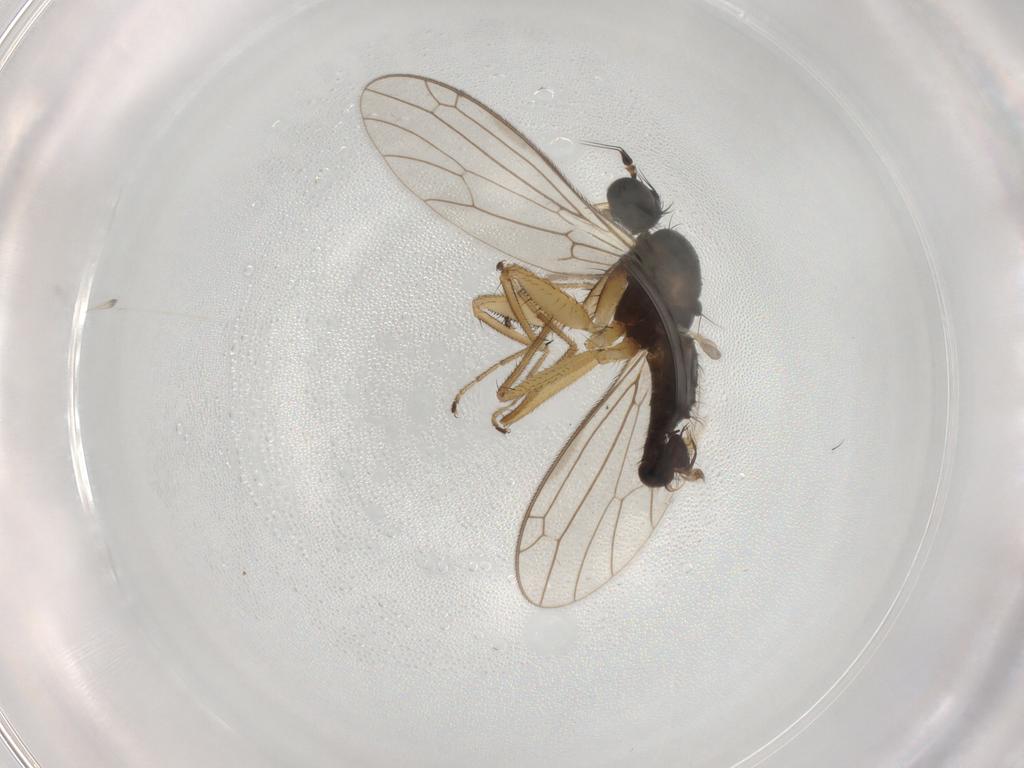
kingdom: Animalia
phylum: Arthropoda
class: Insecta
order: Diptera
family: Empididae
